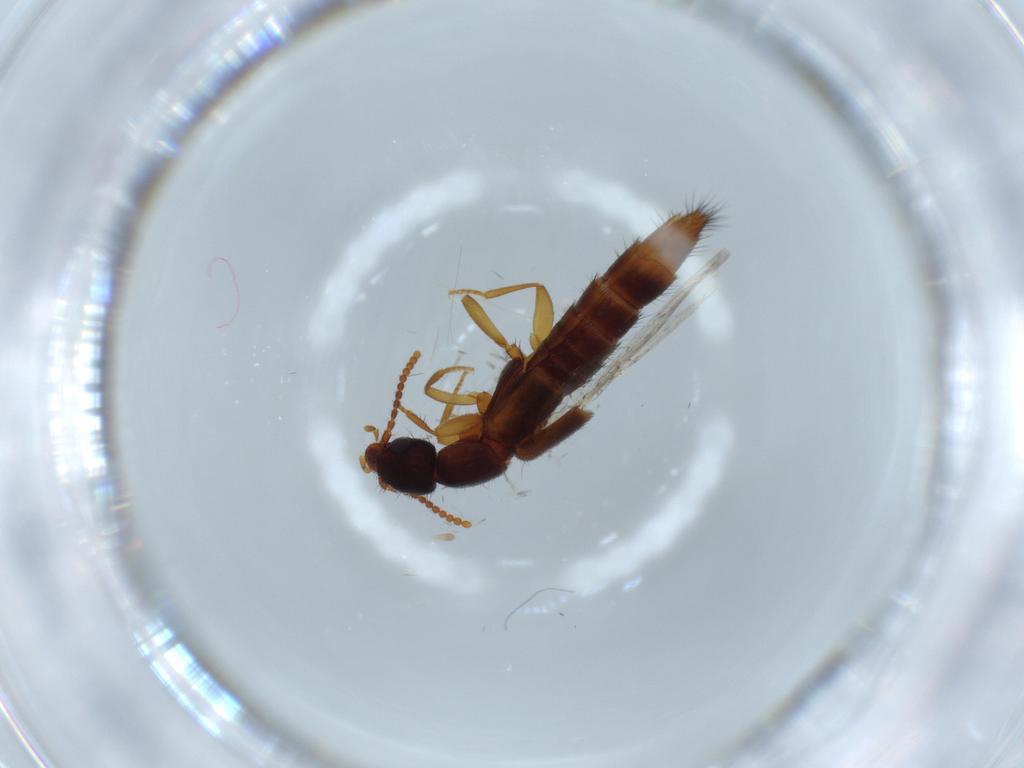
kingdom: Animalia
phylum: Arthropoda
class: Insecta
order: Coleoptera
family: Staphylinidae
